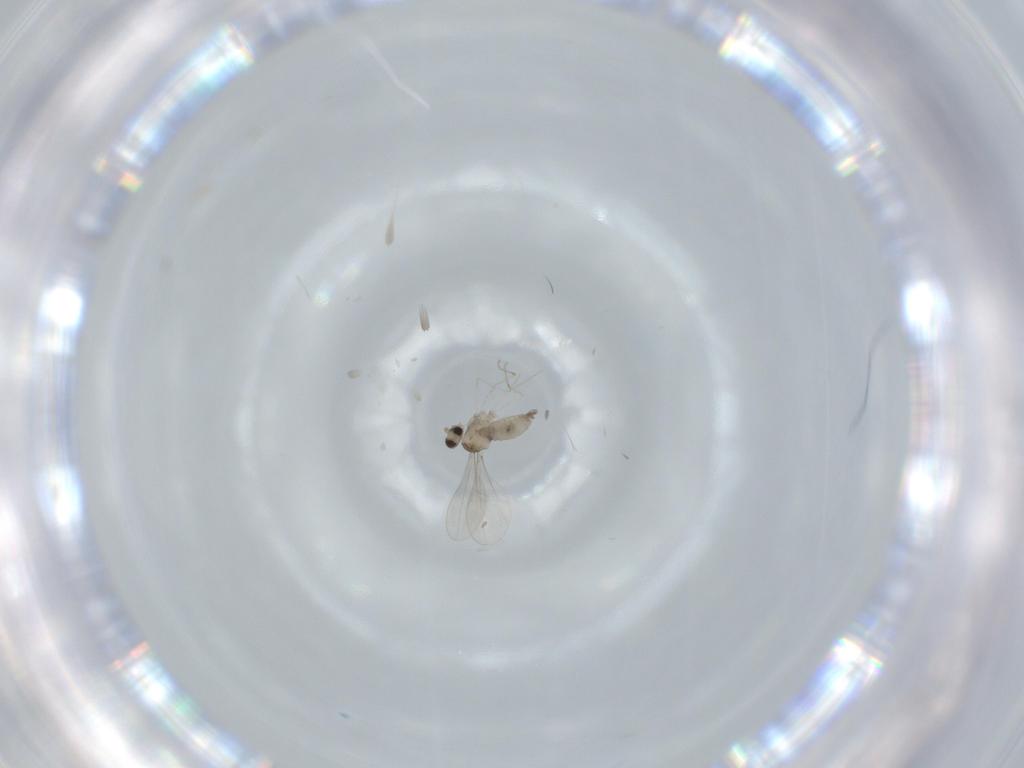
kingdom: Animalia
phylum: Arthropoda
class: Insecta
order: Diptera
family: Cecidomyiidae
